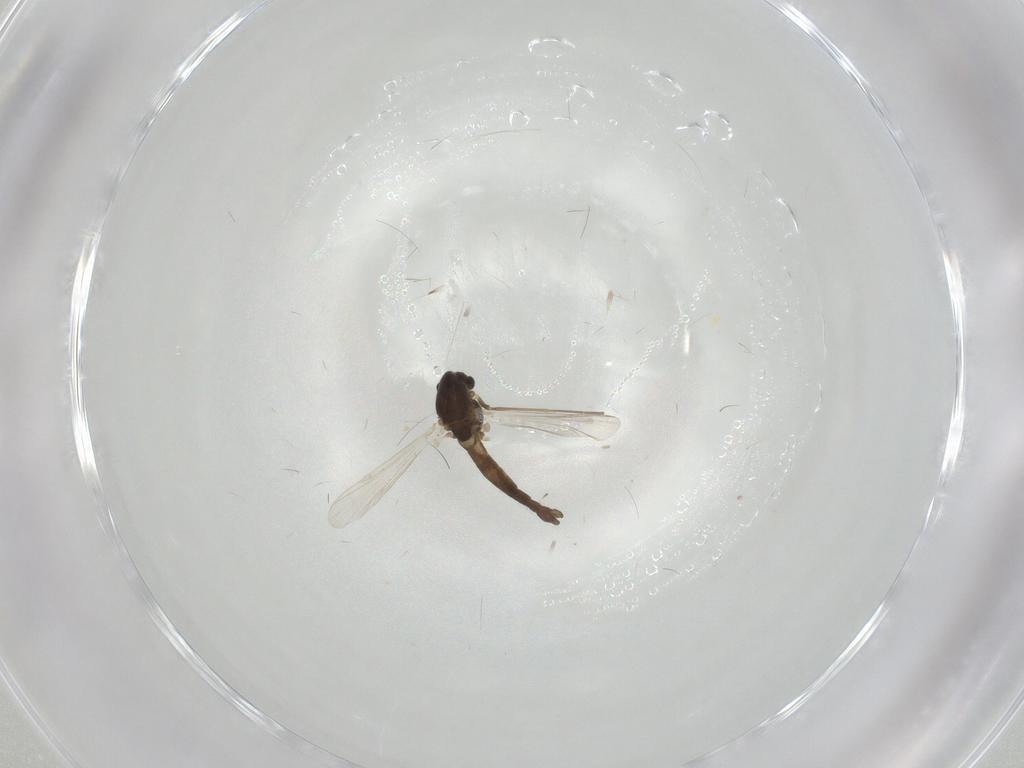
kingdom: Animalia
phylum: Arthropoda
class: Insecta
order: Diptera
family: Chironomidae
